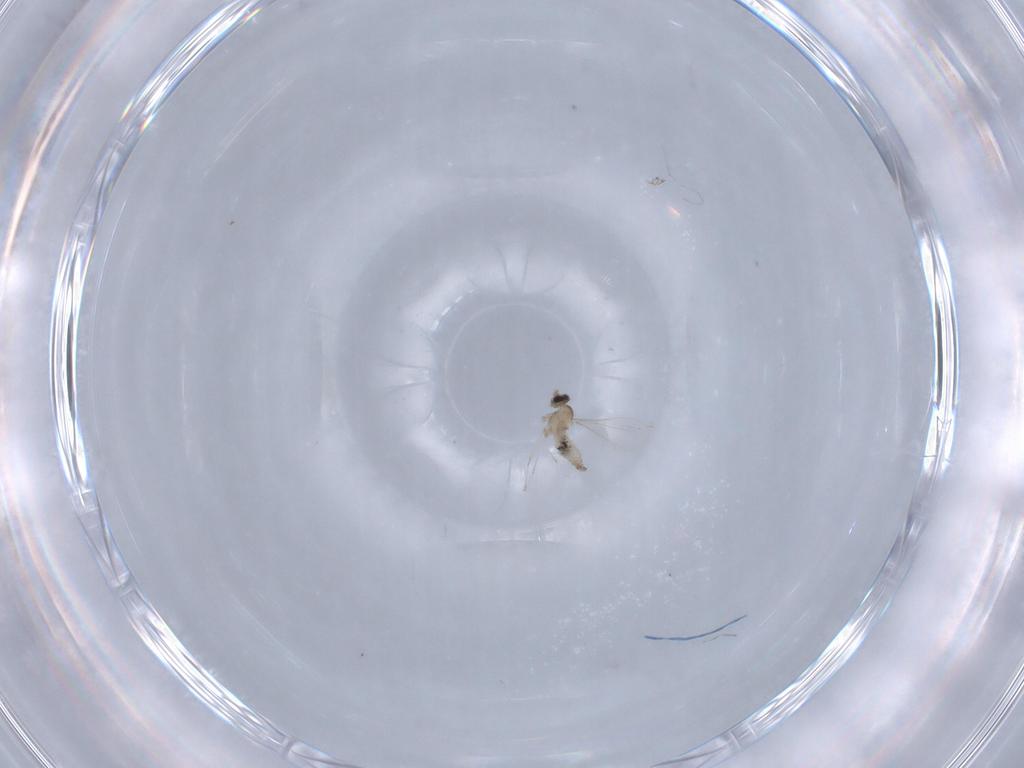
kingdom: Animalia
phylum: Arthropoda
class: Insecta
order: Diptera
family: Cecidomyiidae
